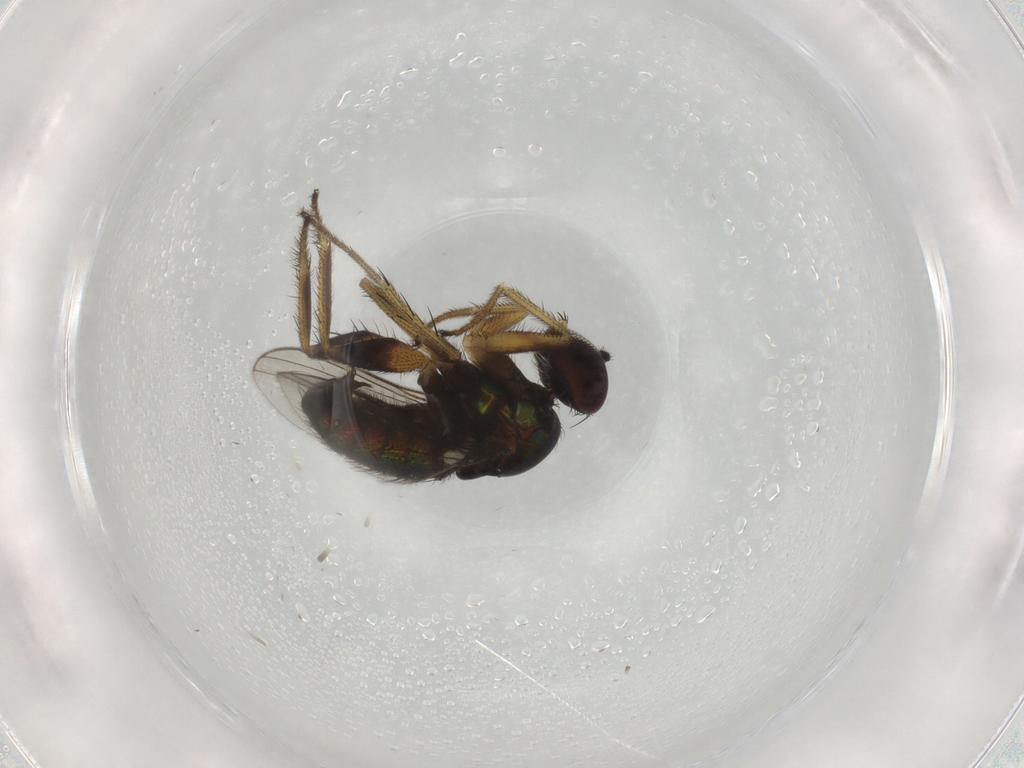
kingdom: Animalia
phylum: Arthropoda
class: Insecta
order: Diptera
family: Dolichopodidae
